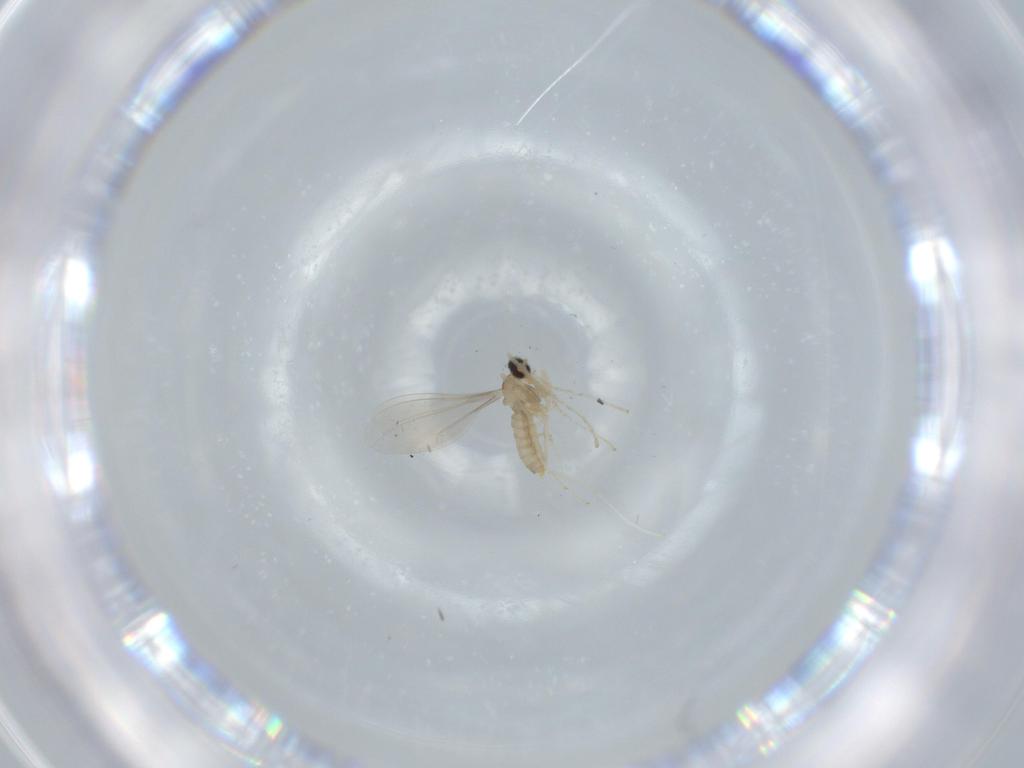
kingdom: Animalia
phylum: Arthropoda
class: Insecta
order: Diptera
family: Cecidomyiidae
